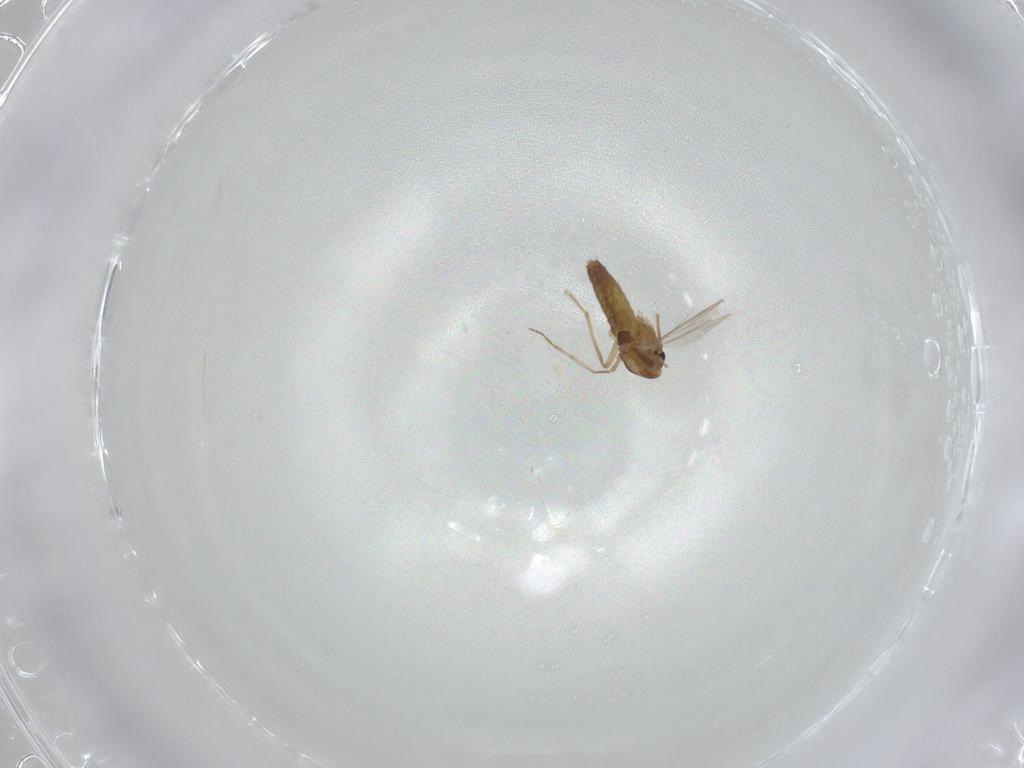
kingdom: Animalia
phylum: Arthropoda
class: Insecta
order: Diptera
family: Chironomidae
